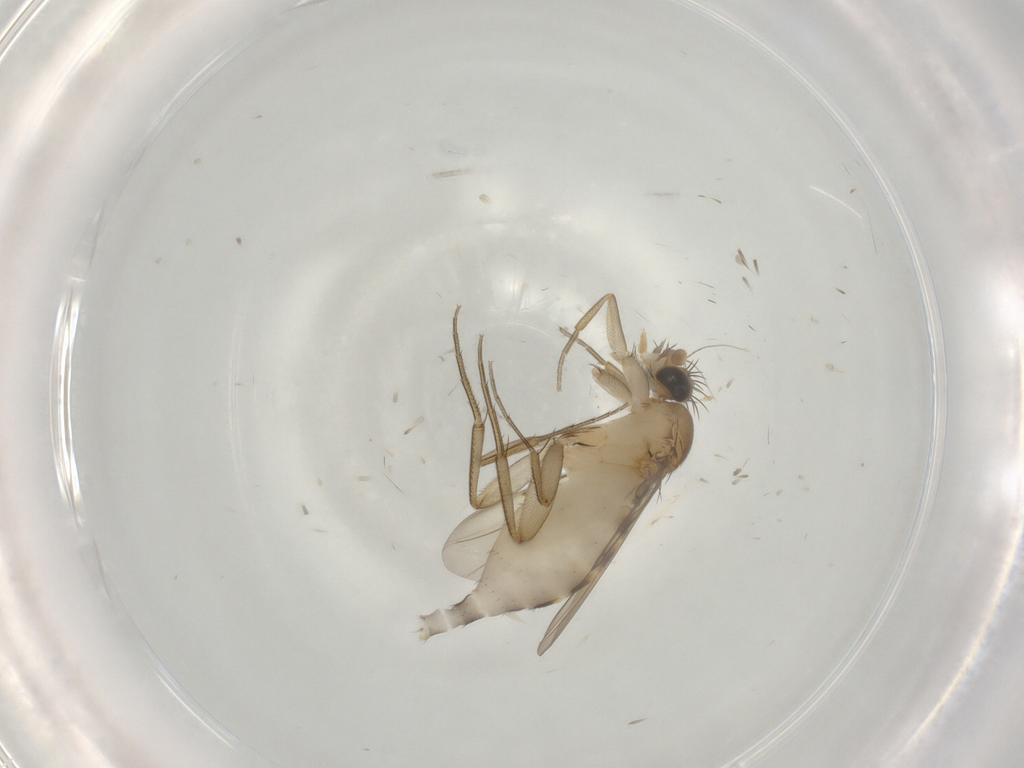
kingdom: Animalia
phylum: Arthropoda
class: Insecta
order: Diptera
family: Phoridae
